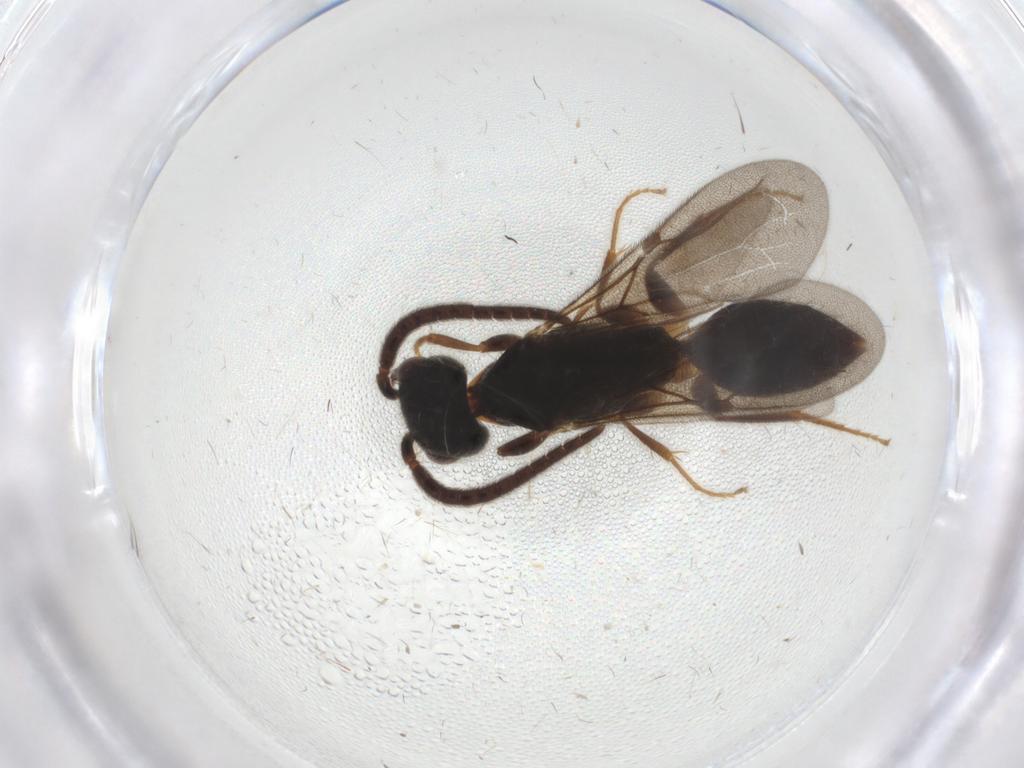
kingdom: Animalia
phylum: Arthropoda
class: Insecta
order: Hymenoptera
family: Bethylidae
